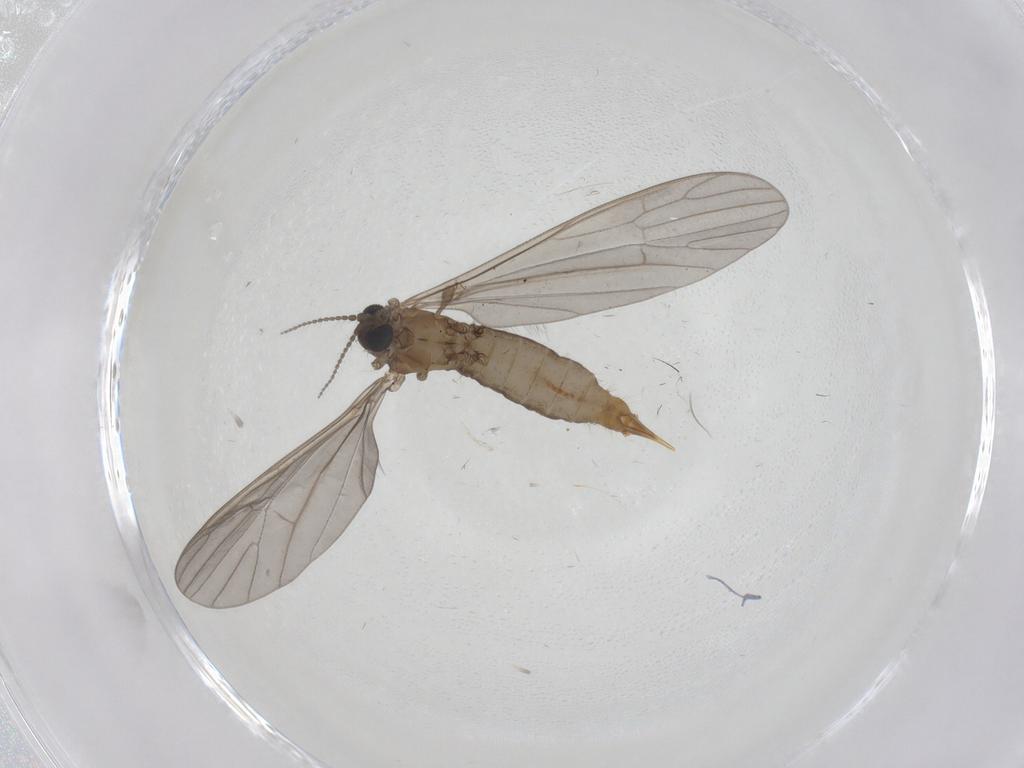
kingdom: Animalia
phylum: Arthropoda
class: Insecta
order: Diptera
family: Limoniidae
